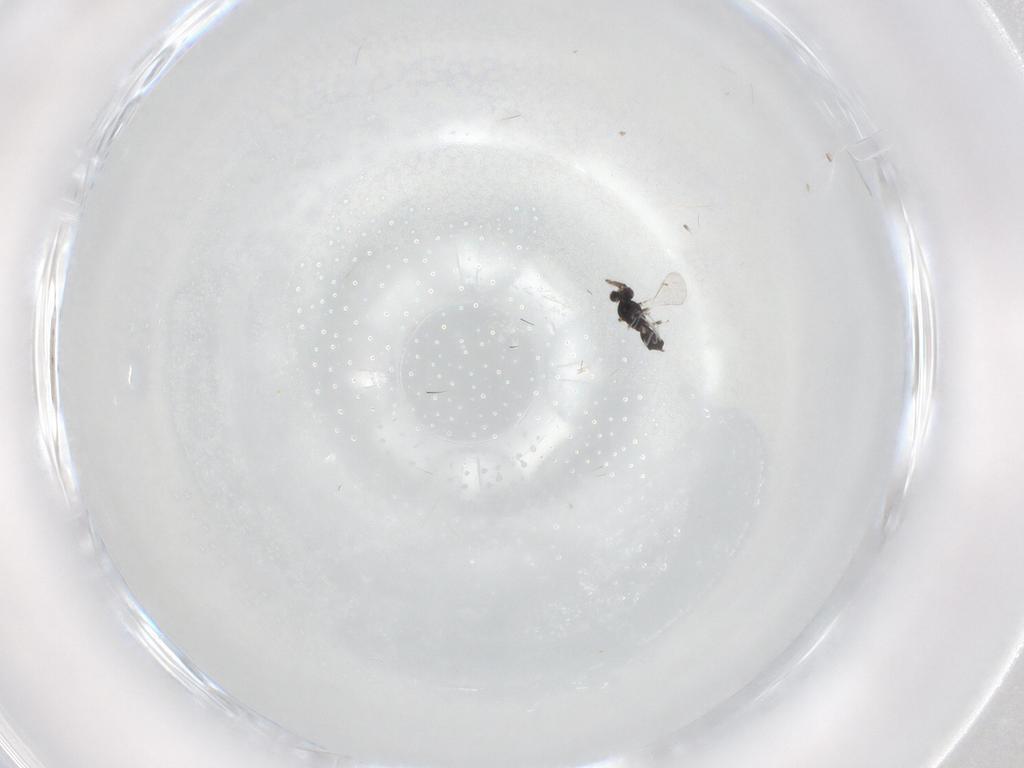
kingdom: Animalia
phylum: Arthropoda
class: Insecta
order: Hymenoptera
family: Eulophidae
